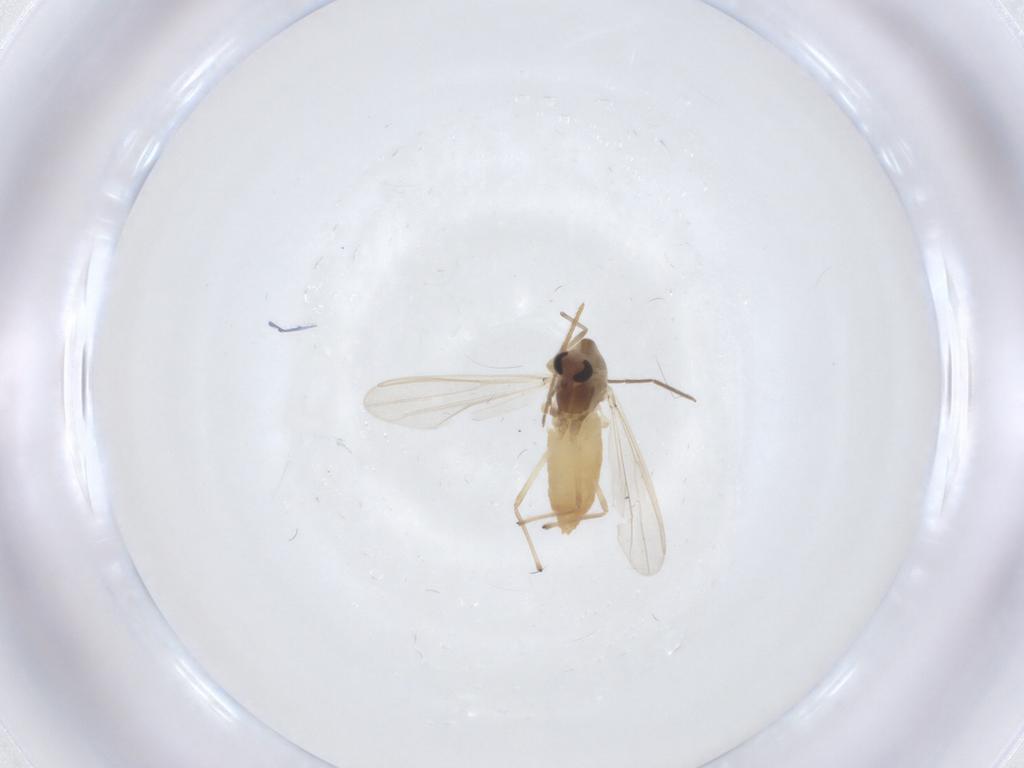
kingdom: Animalia
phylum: Arthropoda
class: Insecta
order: Diptera
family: Chironomidae
